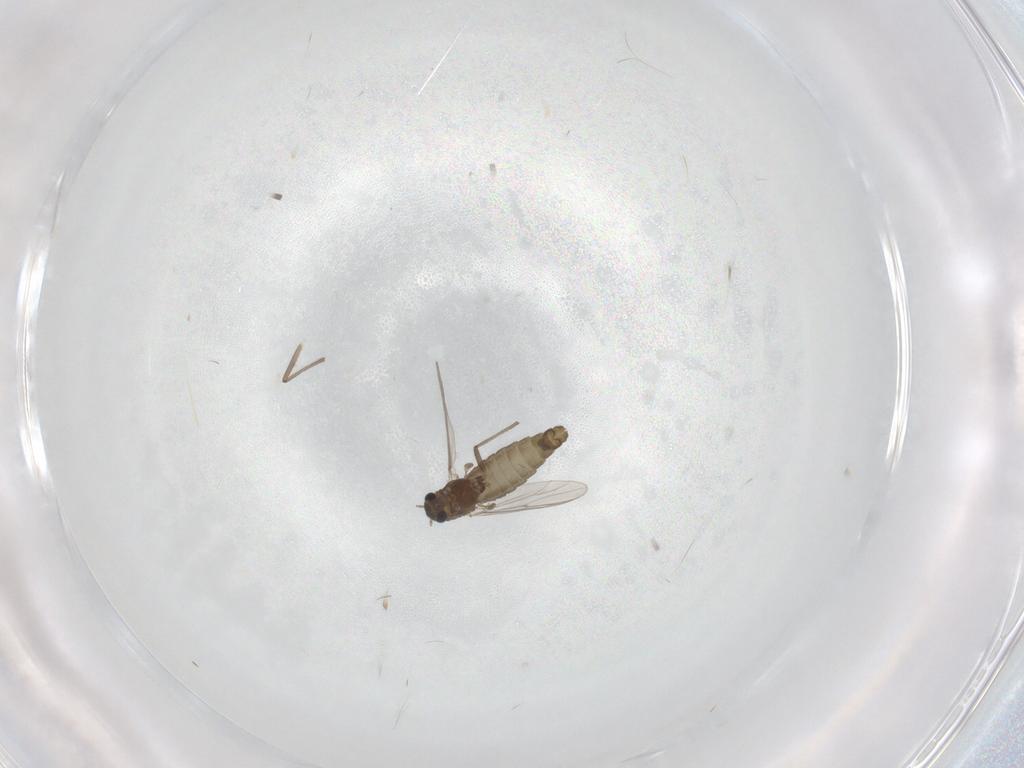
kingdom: Animalia
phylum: Arthropoda
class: Insecta
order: Diptera
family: Chironomidae
